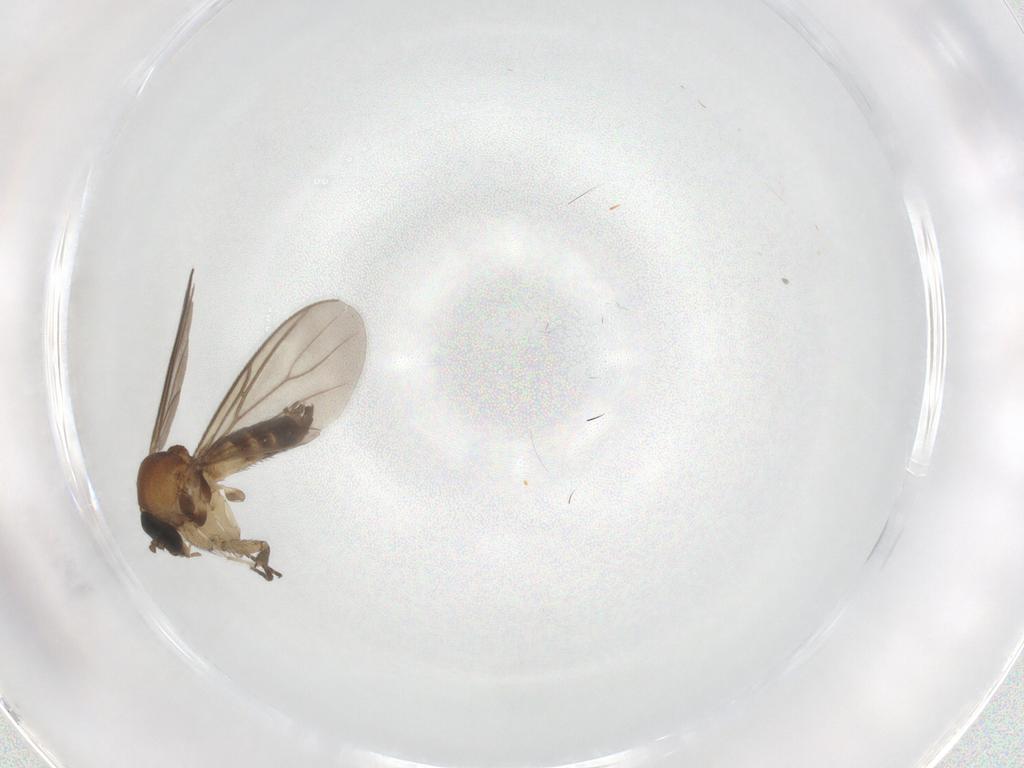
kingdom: Animalia
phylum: Arthropoda
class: Insecta
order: Diptera
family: Mycetophilidae
